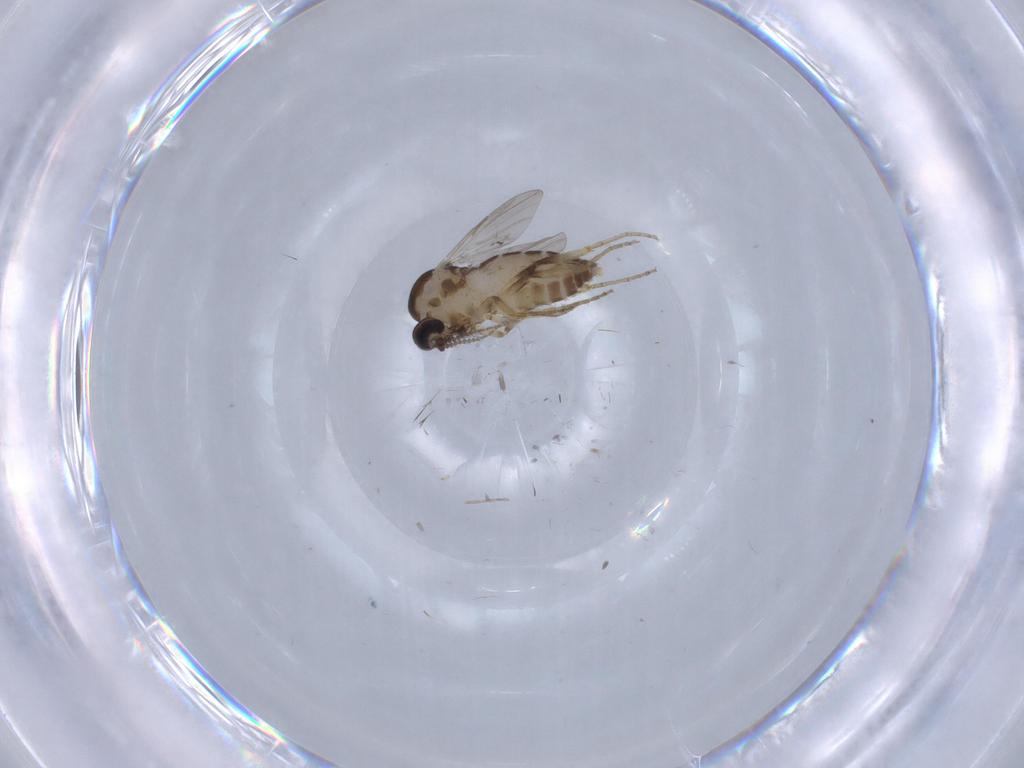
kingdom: Animalia
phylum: Arthropoda
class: Insecta
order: Diptera
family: Ceratopogonidae
